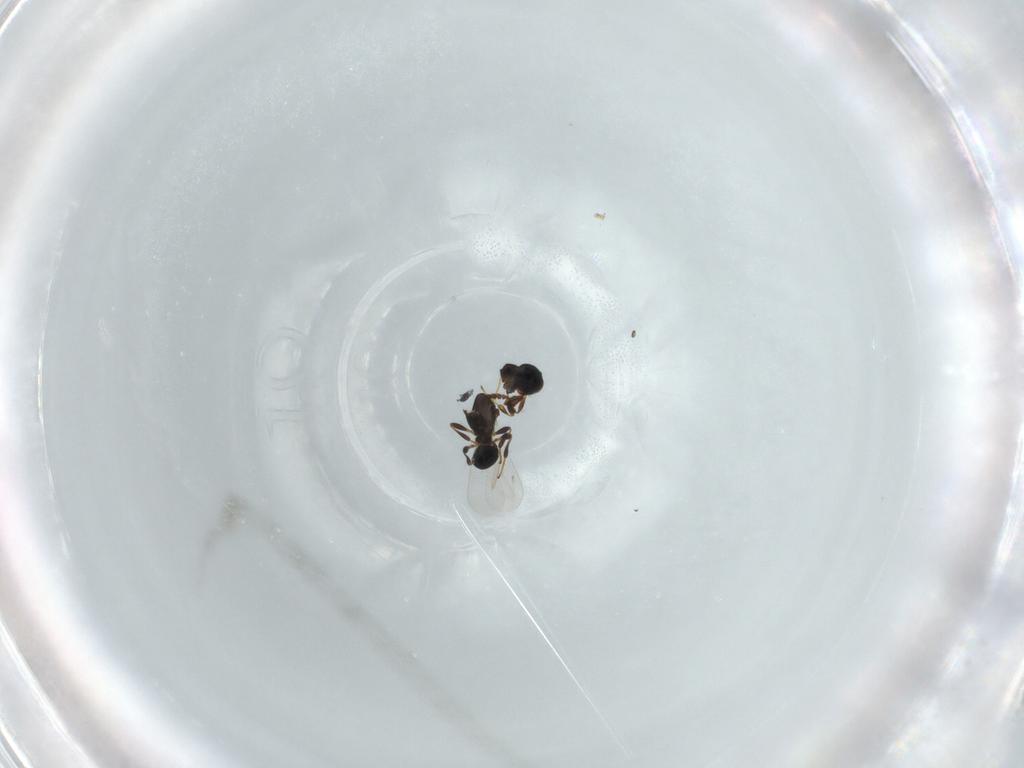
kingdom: Animalia
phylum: Arthropoda
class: Insecta
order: Hymenoptera
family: Platygastridae
